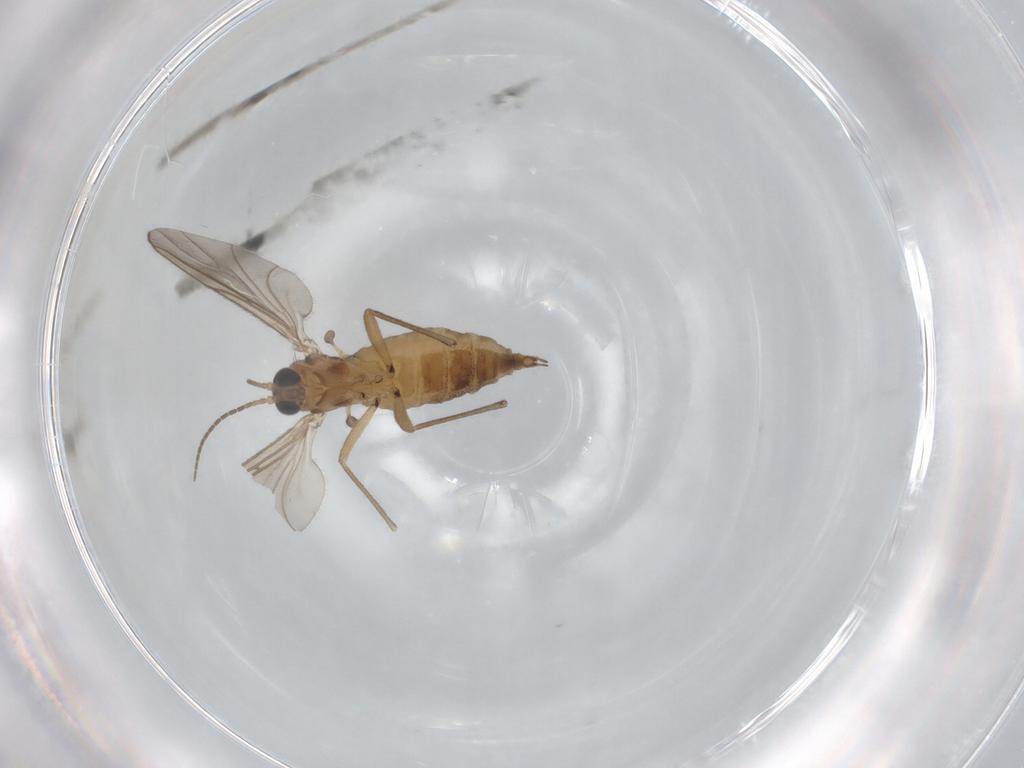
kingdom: Animalia
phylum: Arthropoda
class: Insecta
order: Diptera
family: Sciaridae
